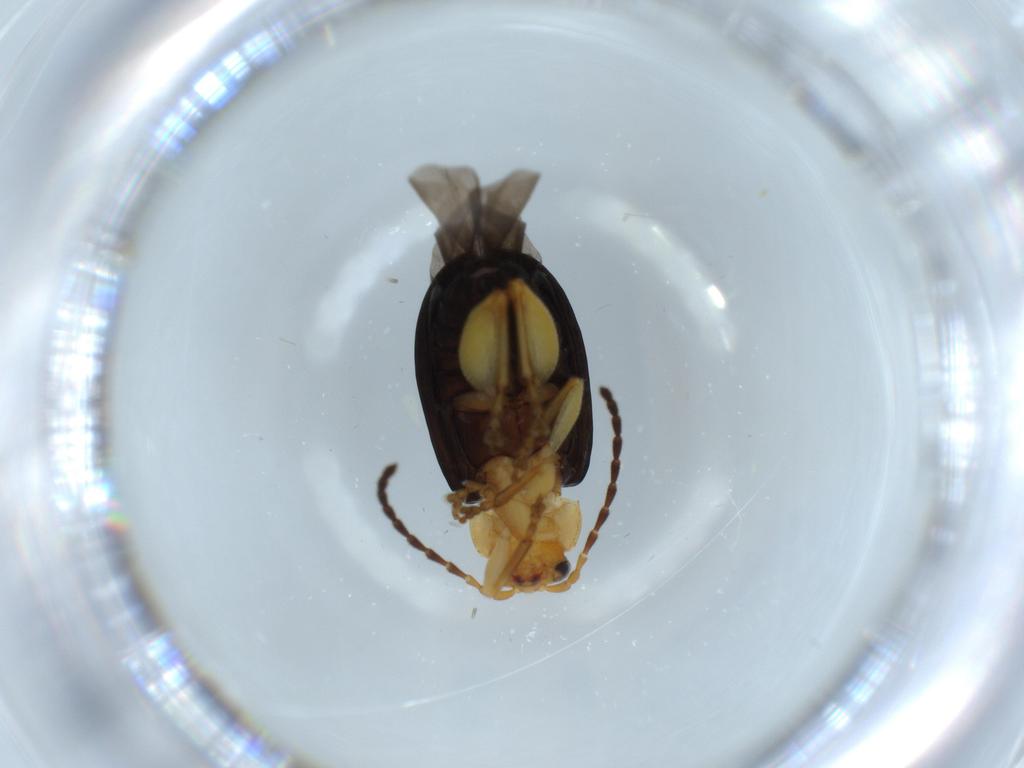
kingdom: Animalia
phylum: Arthropoda
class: Insecta
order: Coleoptera
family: Chrysomelidae
